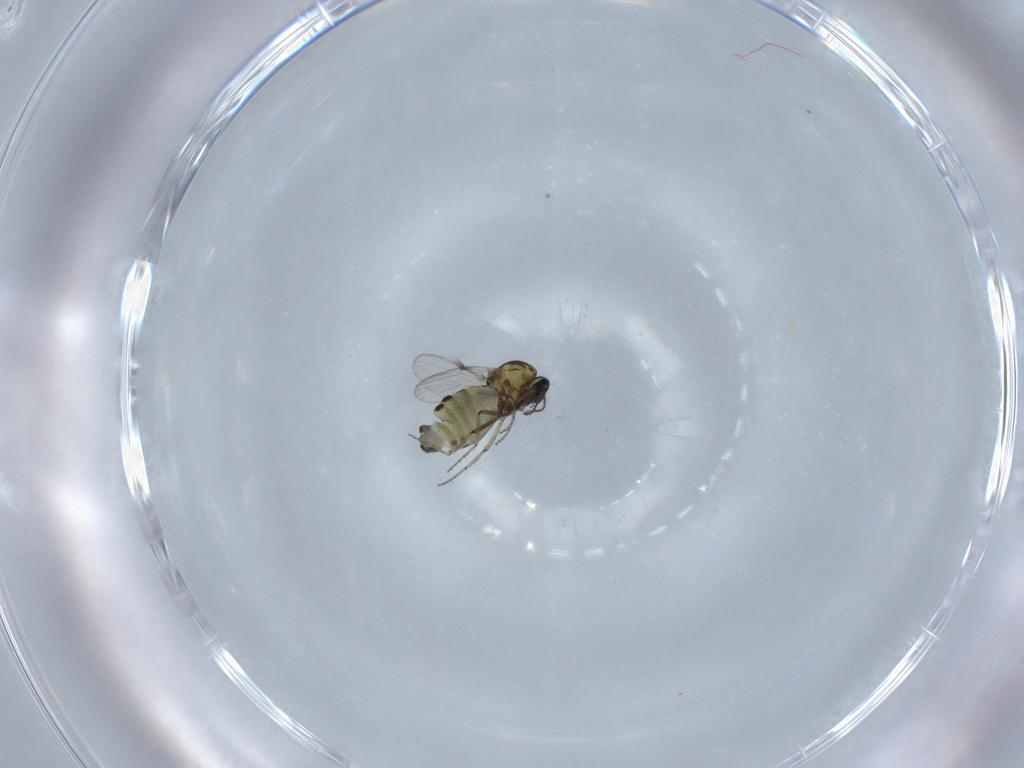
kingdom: Animalia
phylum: Arthropoda
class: Insecta
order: Diptera
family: Ceratopogonidae
